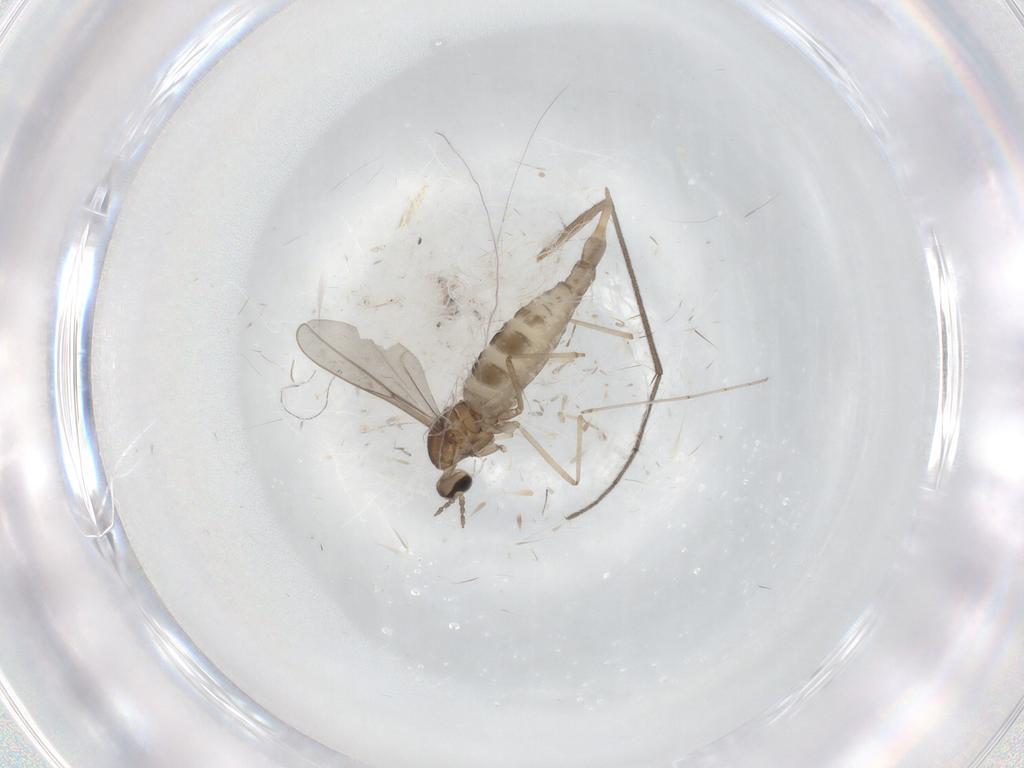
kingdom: Animalia
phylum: Arthropoda
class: Insecta
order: Diptera
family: Cecidomyiidae
